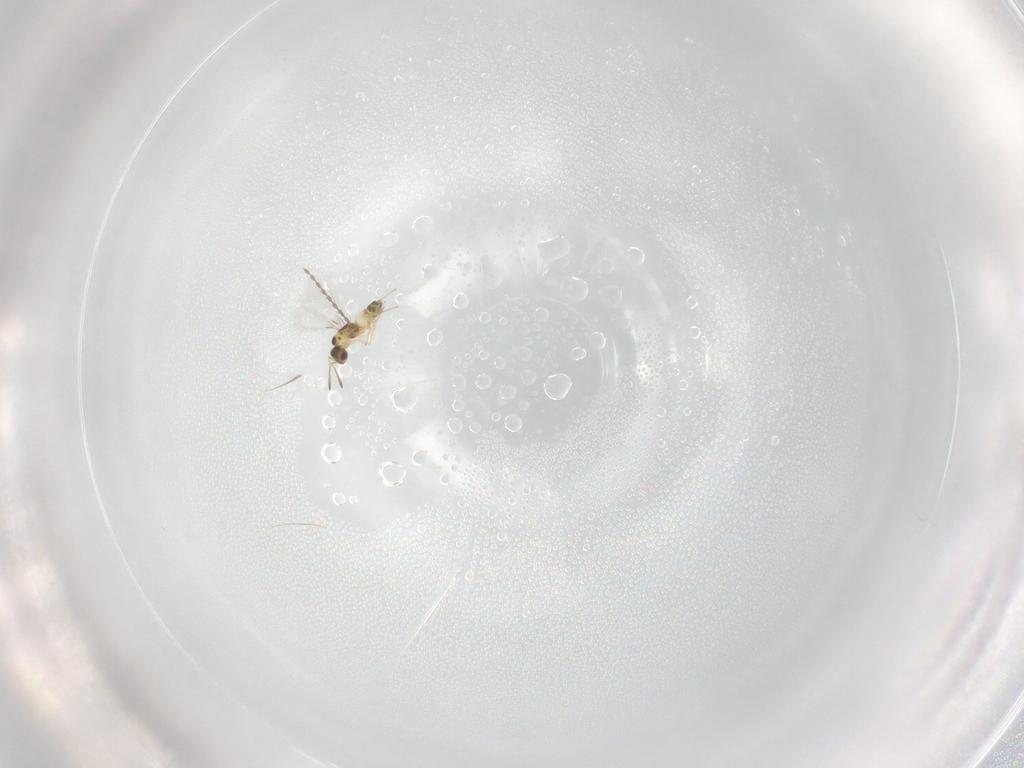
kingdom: Animalia
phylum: Arthropoda
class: Insecta
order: Hymenoptera
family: Mymaridae
